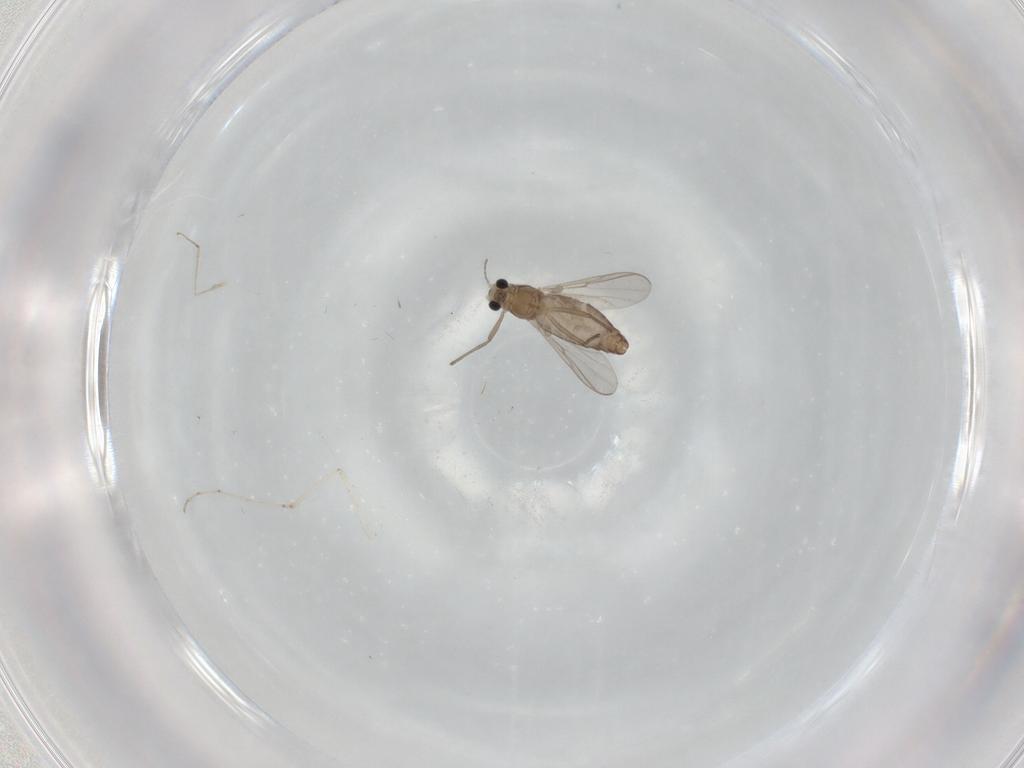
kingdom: Animalia
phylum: Arthropoda
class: Insecta
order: Diptera
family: Chironomidae
